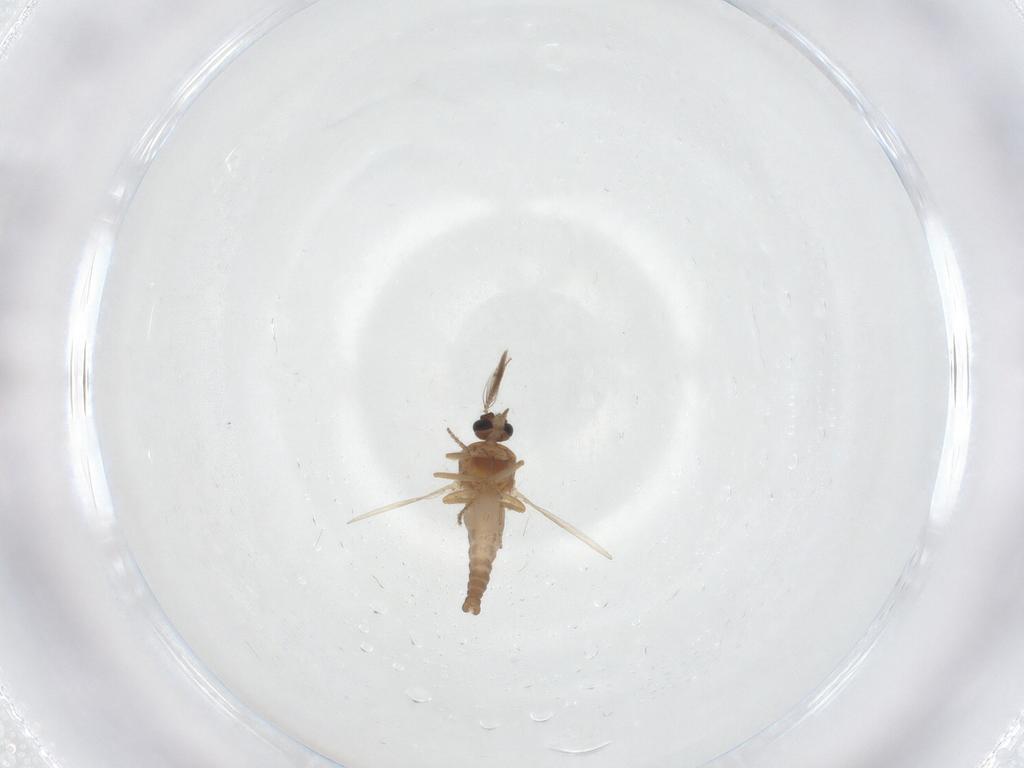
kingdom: Animalia
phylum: Arthropoda
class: Insecta
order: Diptera
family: Ceratopogonidae
